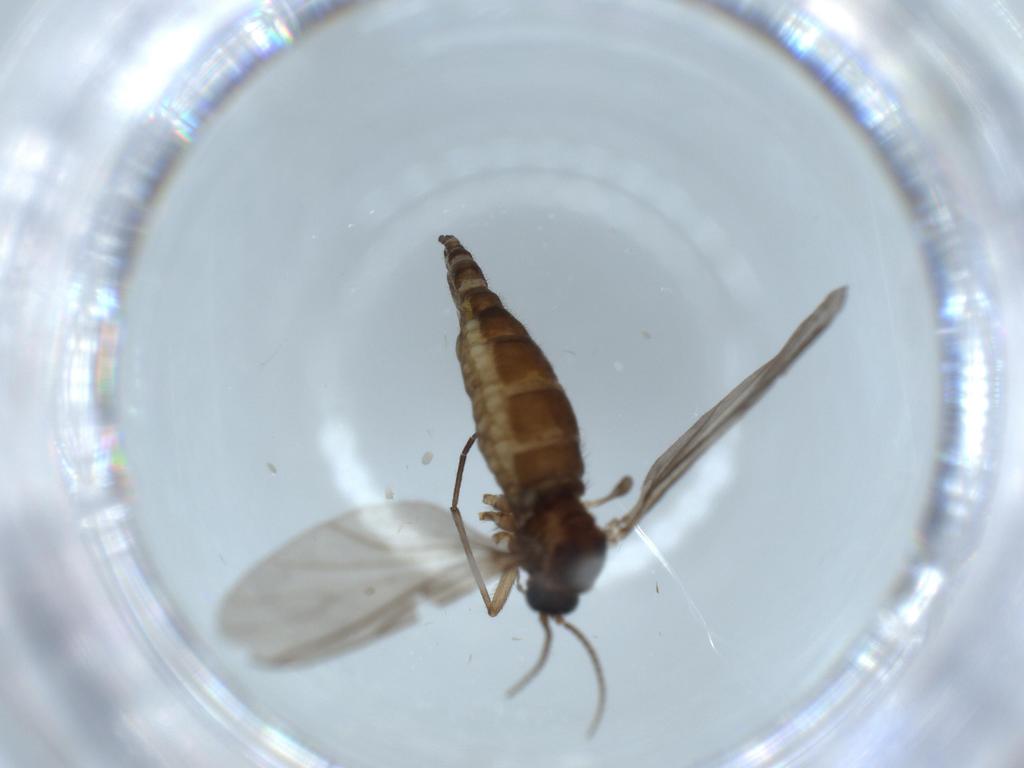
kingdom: Animalia
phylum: Arthropoda
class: Insecta
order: Diptera
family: Sciaridae
